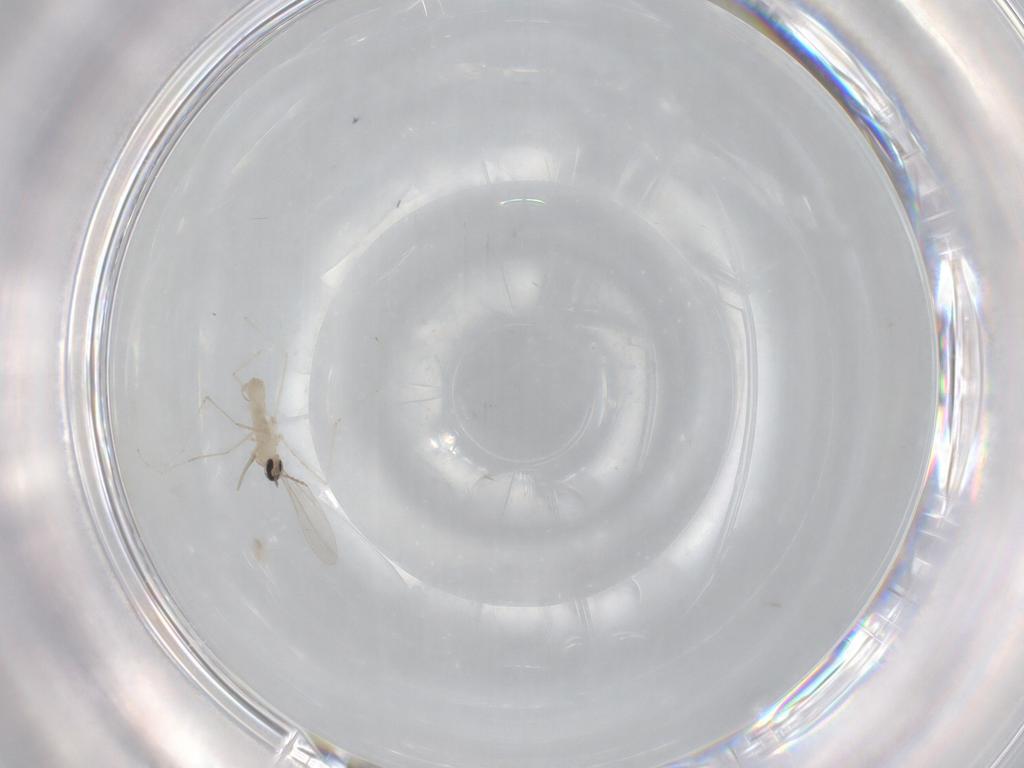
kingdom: Animalia
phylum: Arthropoda
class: Insecta
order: Diptera
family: Cecidomyiidae
